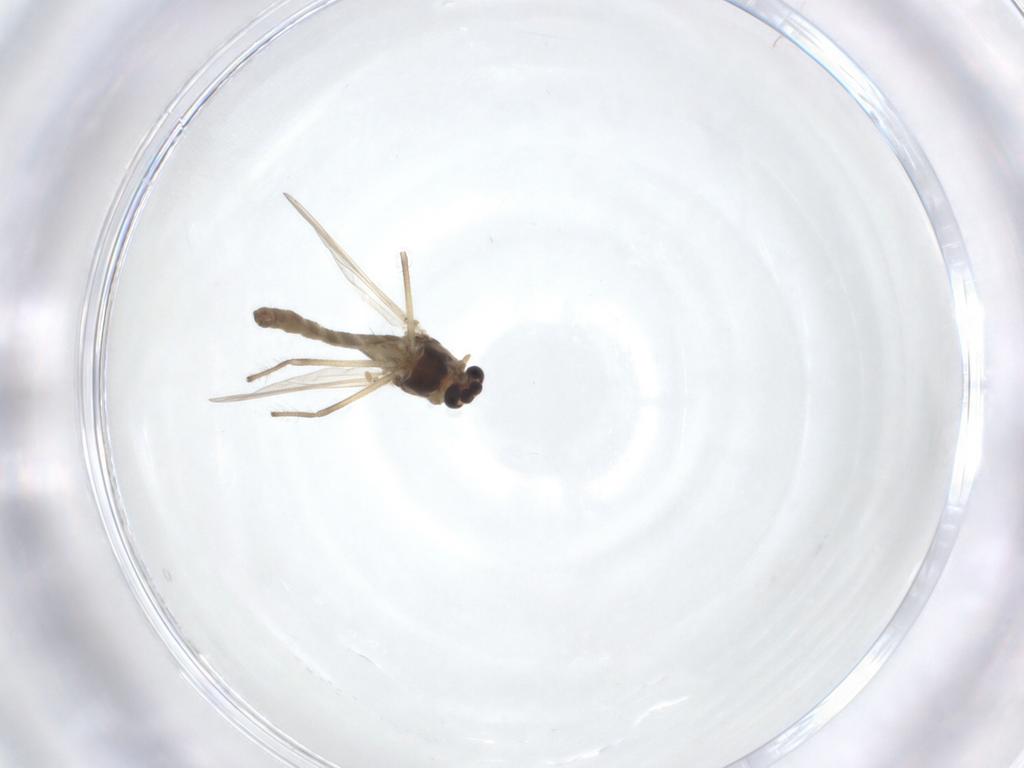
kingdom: Animalia
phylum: Arthropoda
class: Insecta
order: Diptera
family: Chironomidae
